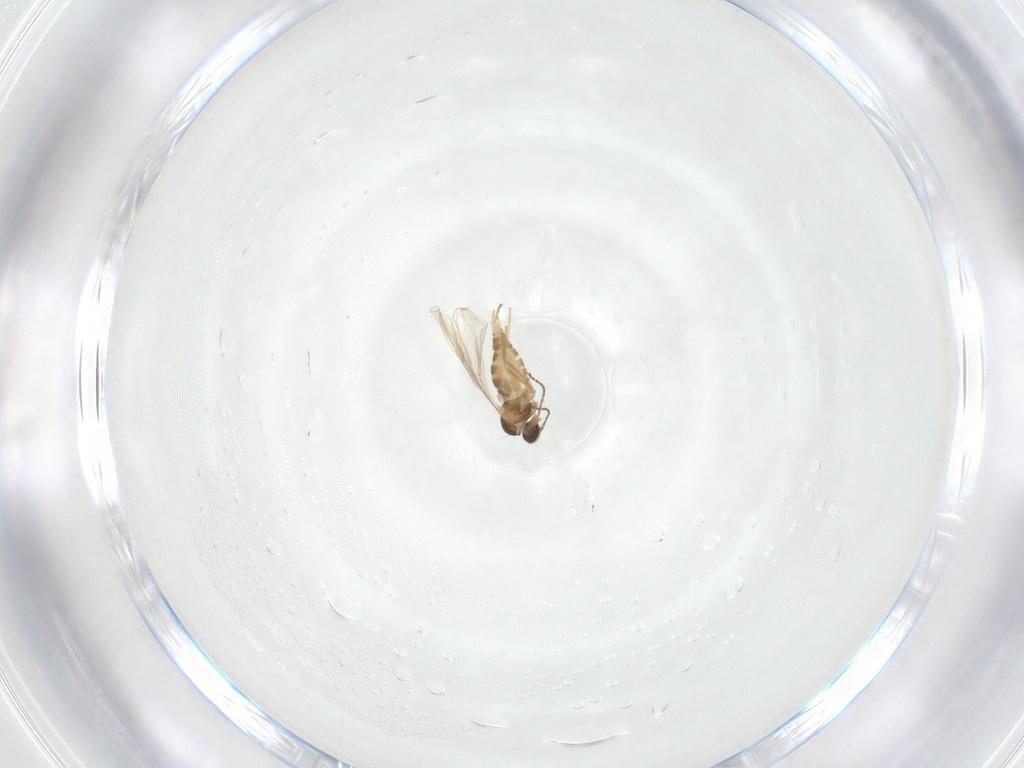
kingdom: Animalia
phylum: Arthropoda
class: Insecta
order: Diptera
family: Cecidomyiidae
